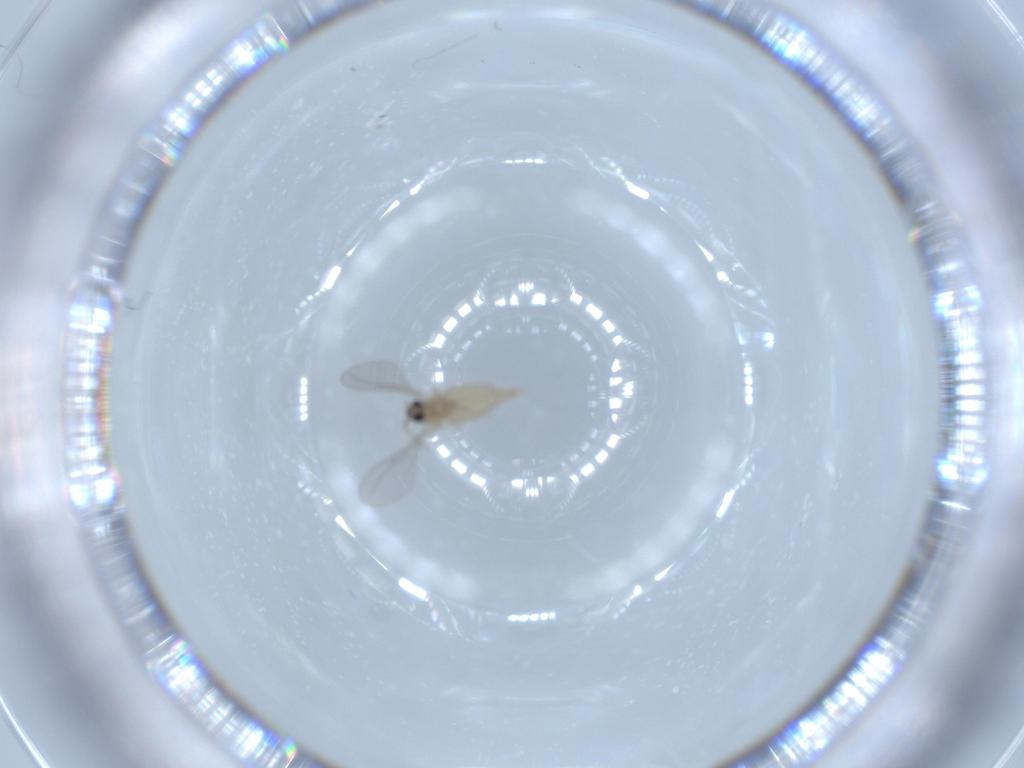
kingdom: Animalia
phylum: Arthropoda
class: Insecta
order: Diptera
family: Cecidomyiidae
